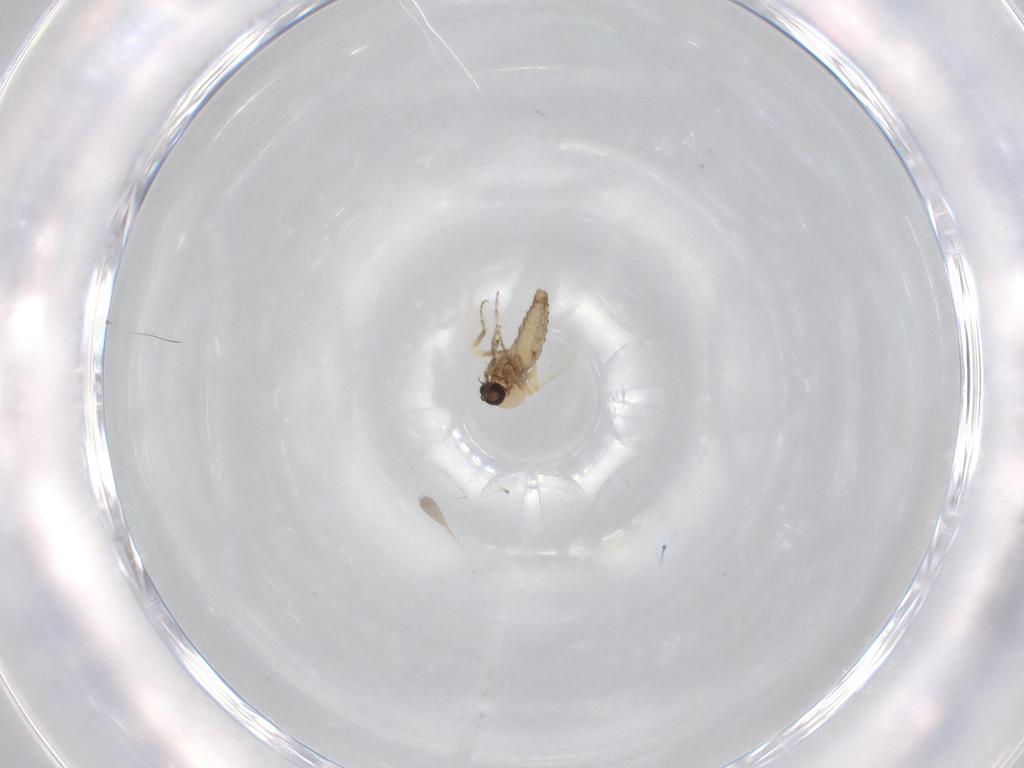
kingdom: Animalia
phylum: Arthropoda
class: Insecta
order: Diptera
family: Ceratopogonidae
